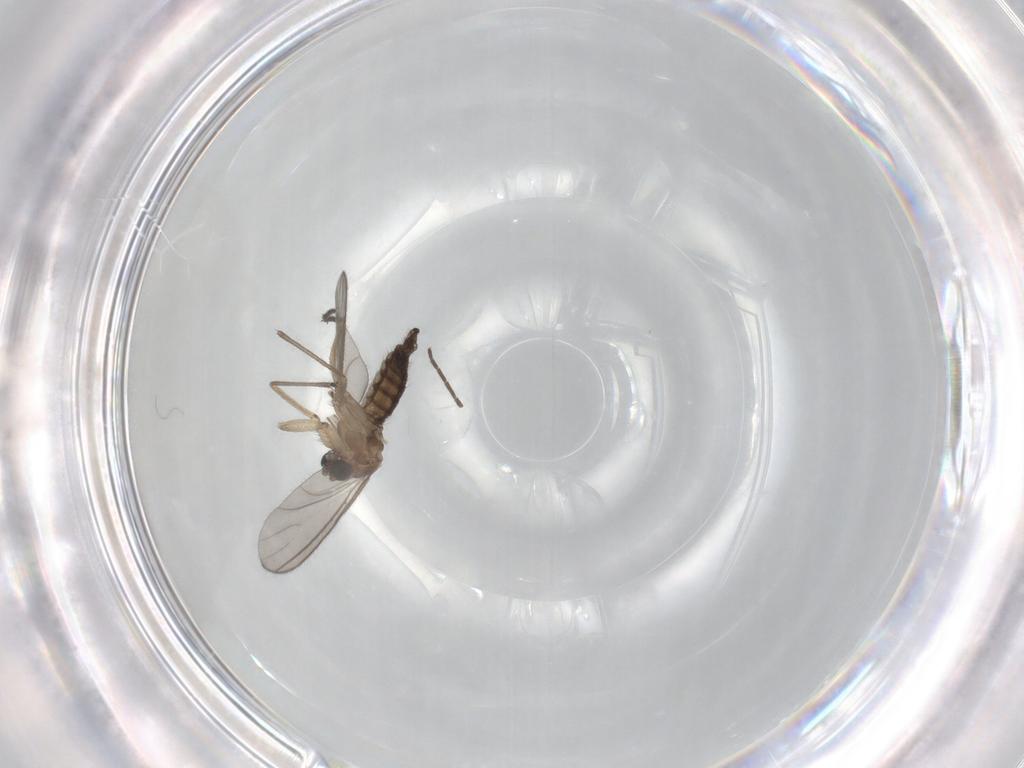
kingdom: Animalia
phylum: Arthropoda
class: Insecta
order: Diptera
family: Sciaridae
